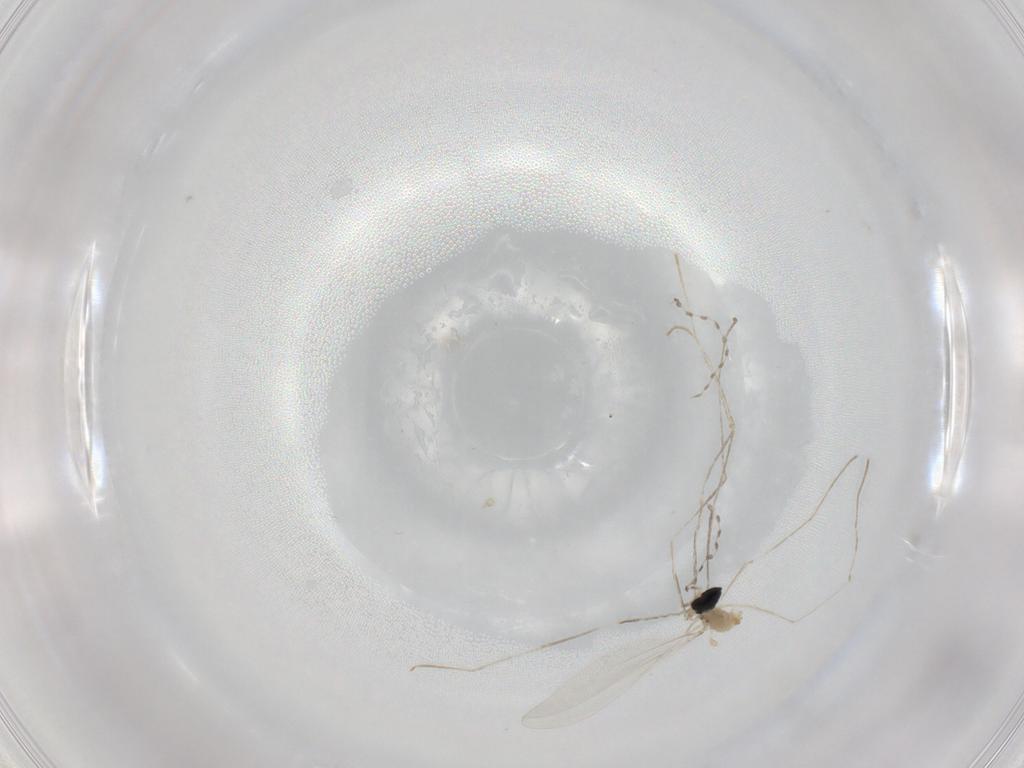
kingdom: Animalia
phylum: Arthropoda
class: Insecta
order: Diptera
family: Cecidomyiidae
